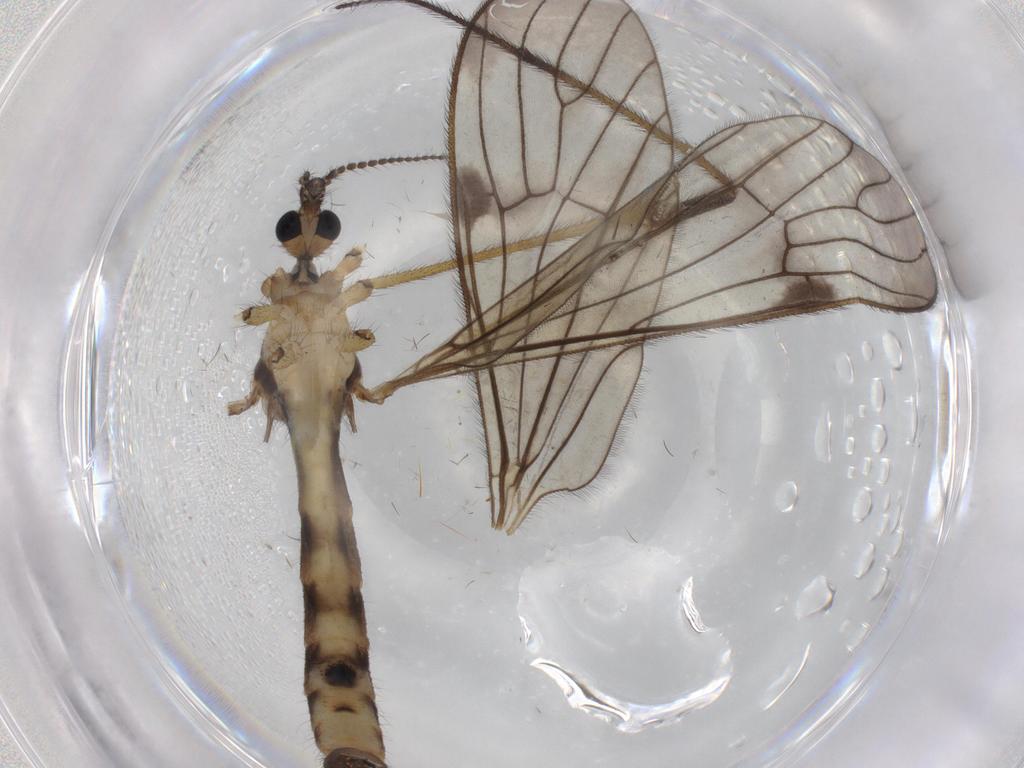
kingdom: Animalia
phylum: Arthropoda
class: Insecta
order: Diptera
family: Limoniidae
